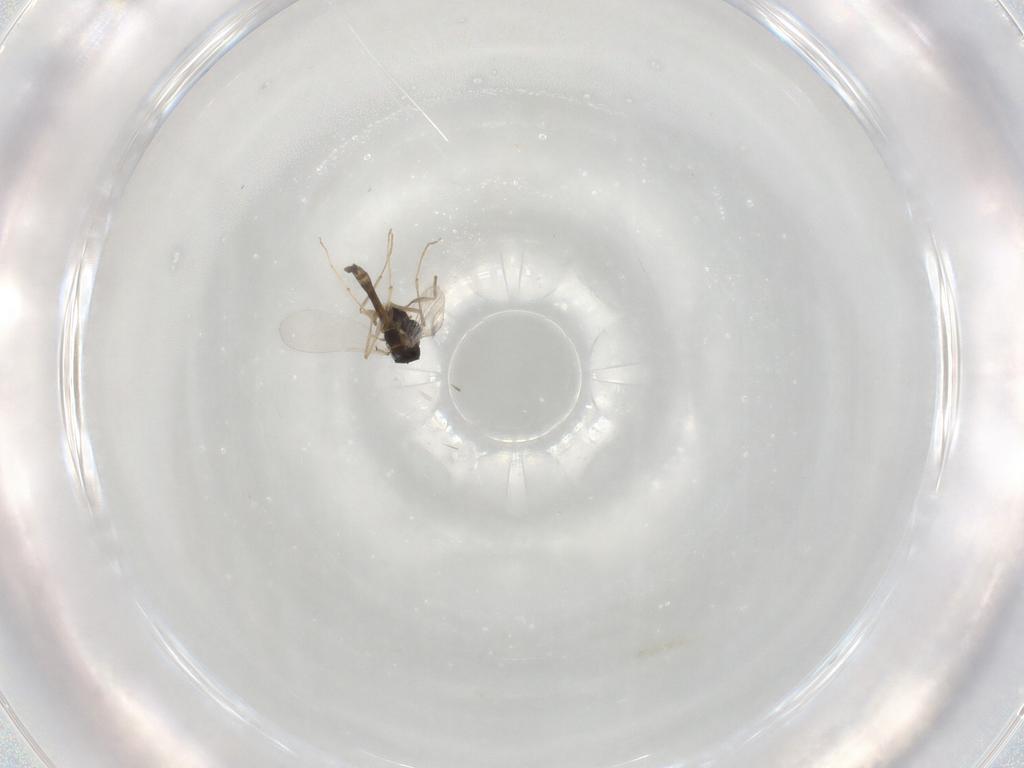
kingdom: Animalia
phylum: Arthropoda
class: Insecta
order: Diptera
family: Chironomidae
